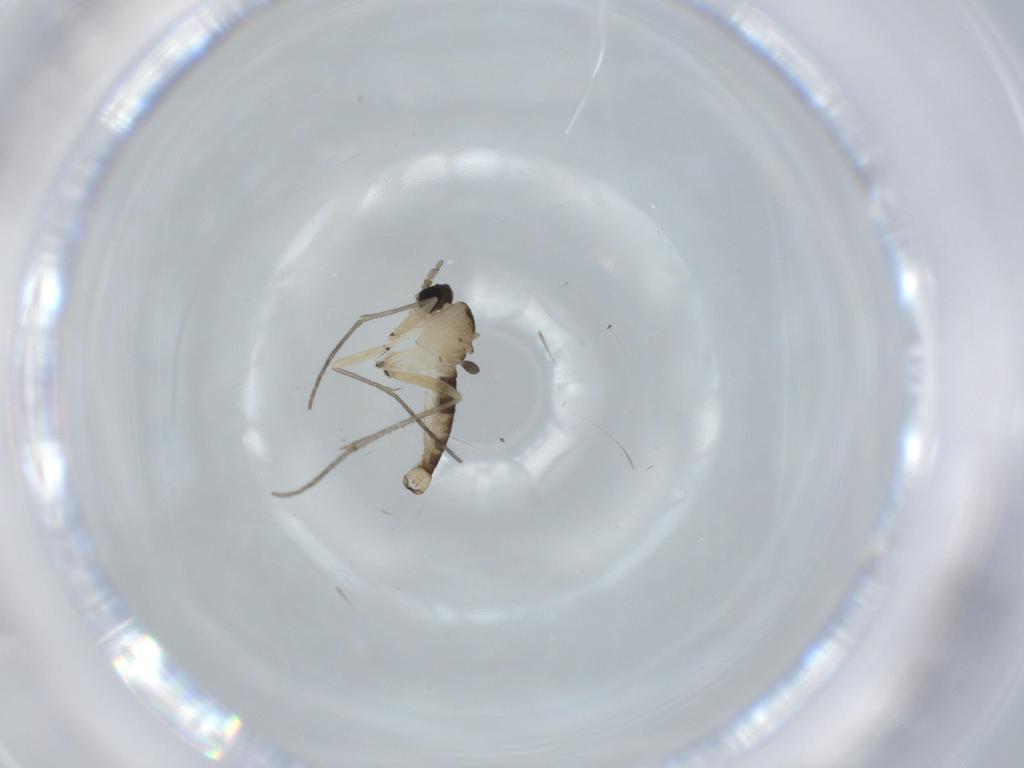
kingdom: Animalia
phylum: Arthropoda
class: Insecta
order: Diptera
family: Sciaridae
